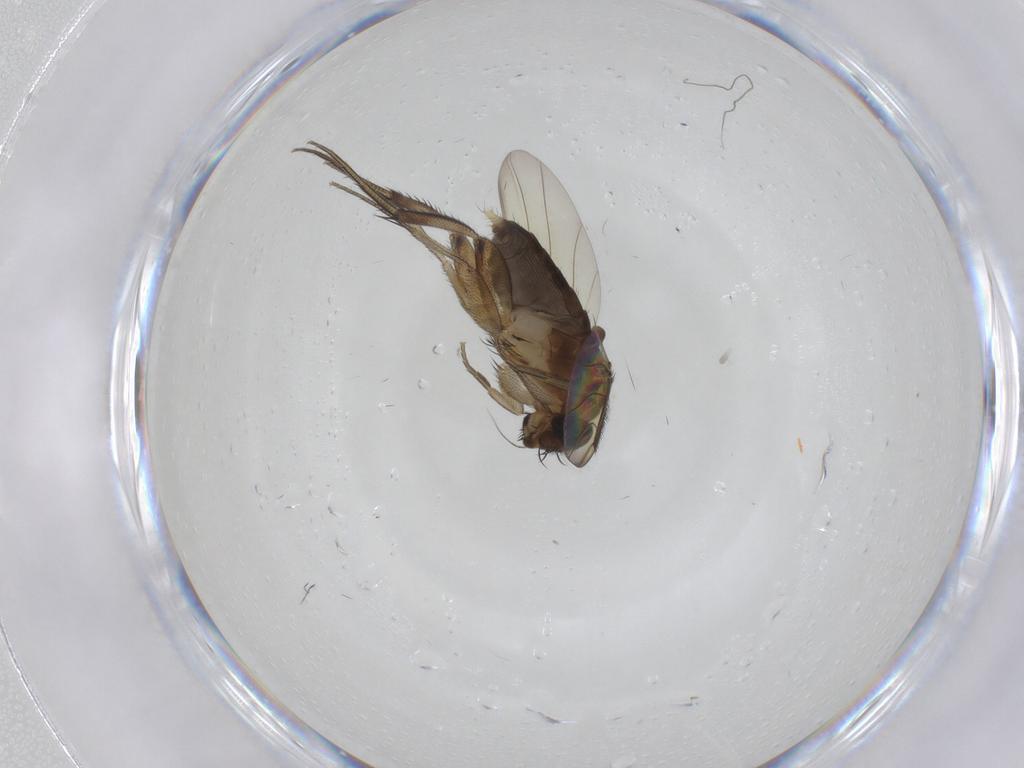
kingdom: Animalia
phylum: Arthropoda
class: Insecta
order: Diptera
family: Phoridae
